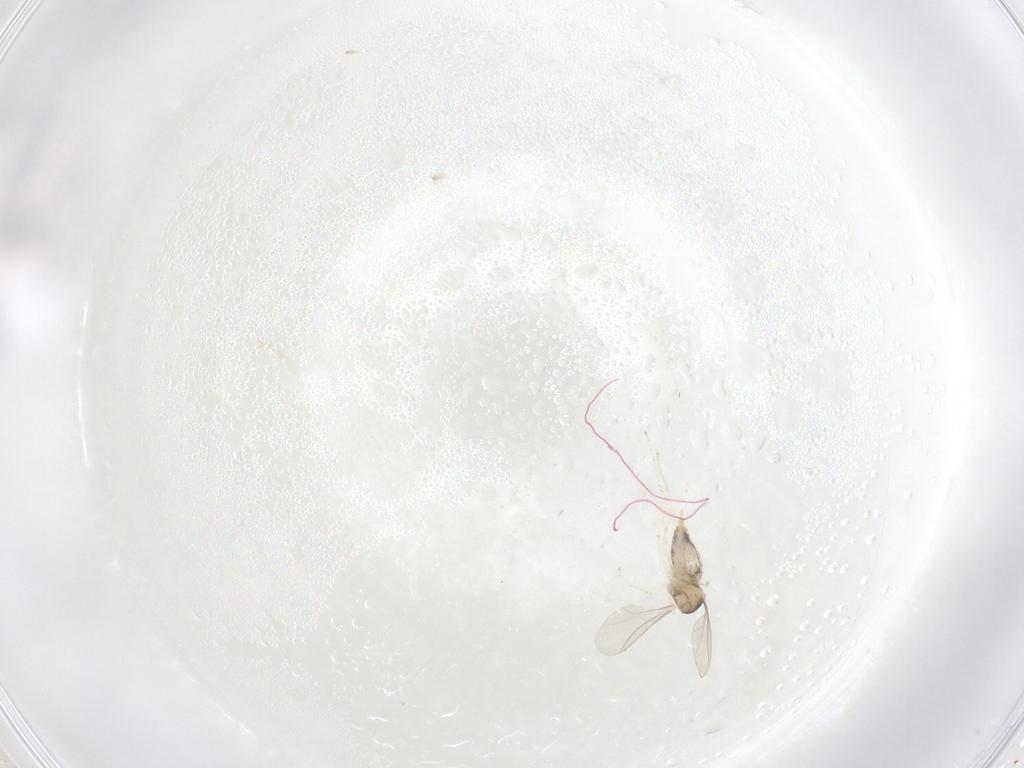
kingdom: Animalia
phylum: Arthropoda
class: Insecta
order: Diptera
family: Cecidomyiidae
